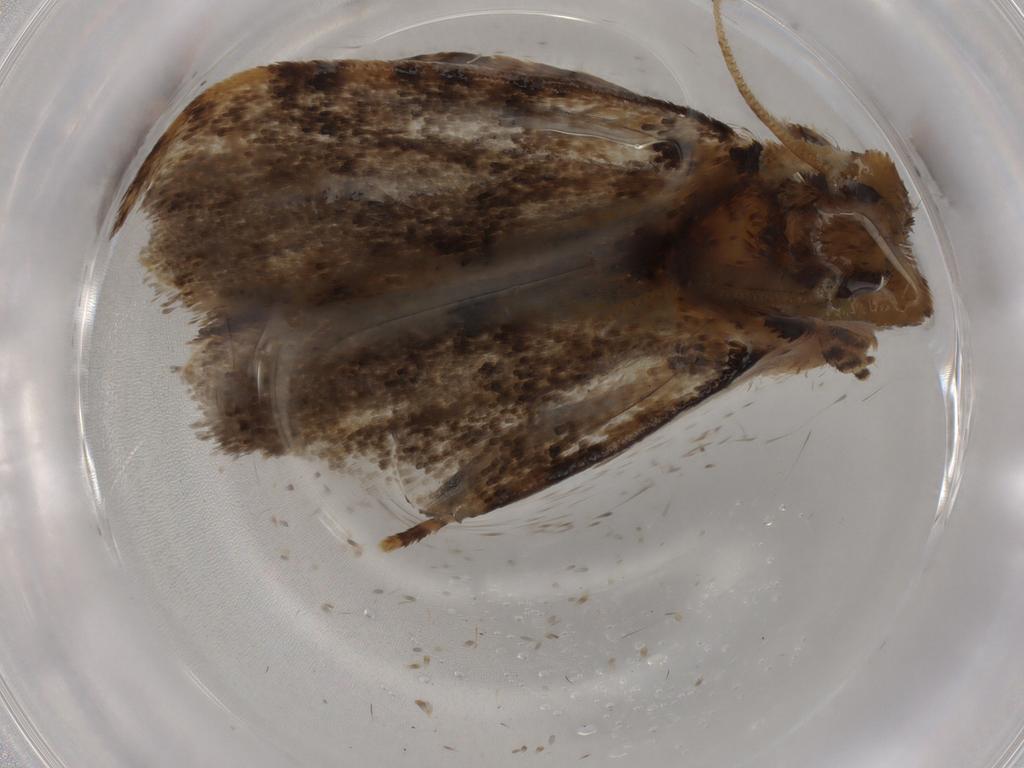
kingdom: Animalia
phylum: Arthropoda
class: Insecta
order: Lepidoptera
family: Tineidae
